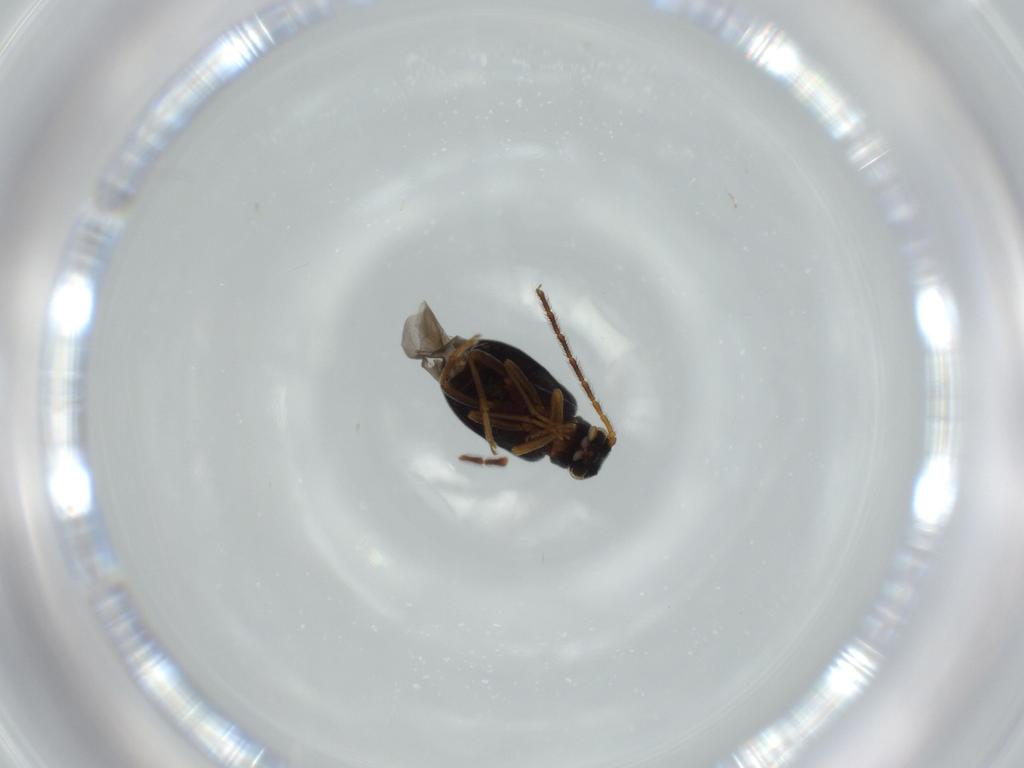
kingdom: Animalia
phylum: Arthropoda
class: Insecta
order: Coleoptera
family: Aderidae
